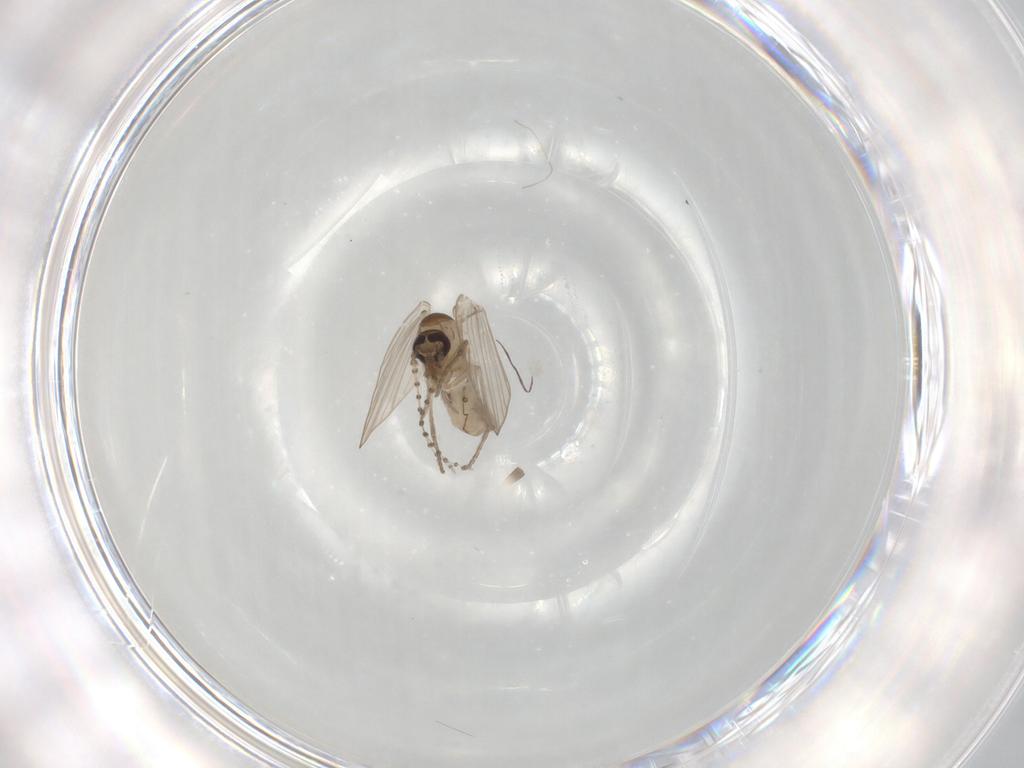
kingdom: Animalia
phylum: Arthropoda
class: Insecta
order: Diptera
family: Psychodidae
